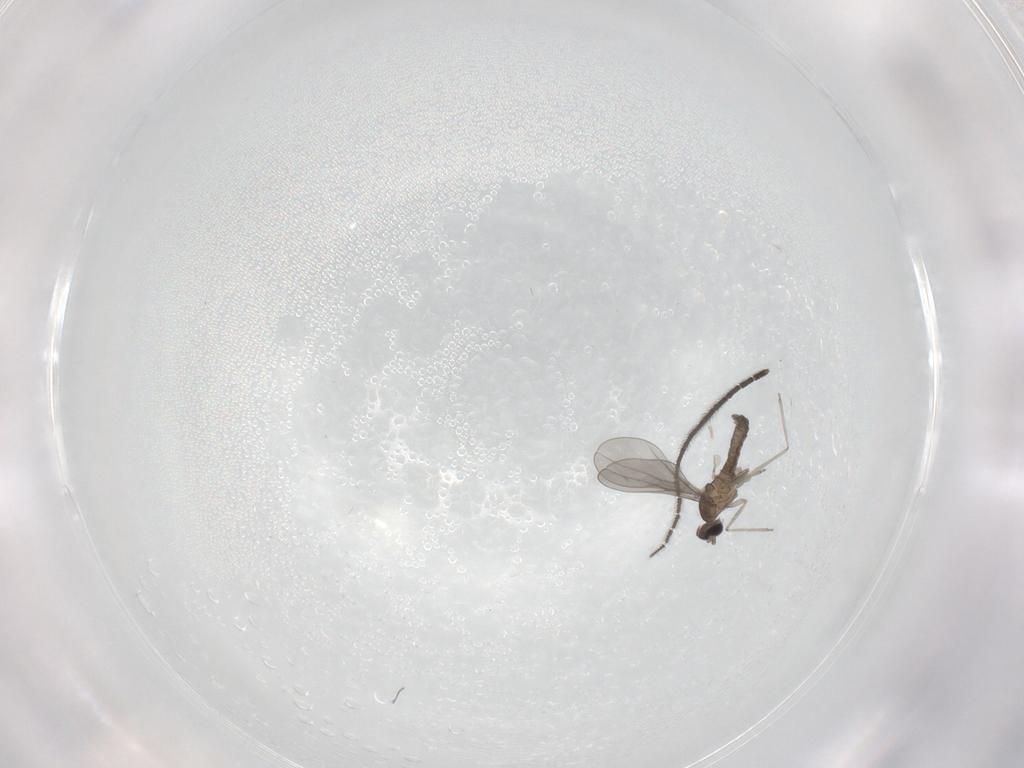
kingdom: Animalia
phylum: Arthropoda
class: Insecta
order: Diptera
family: Sciaridae
